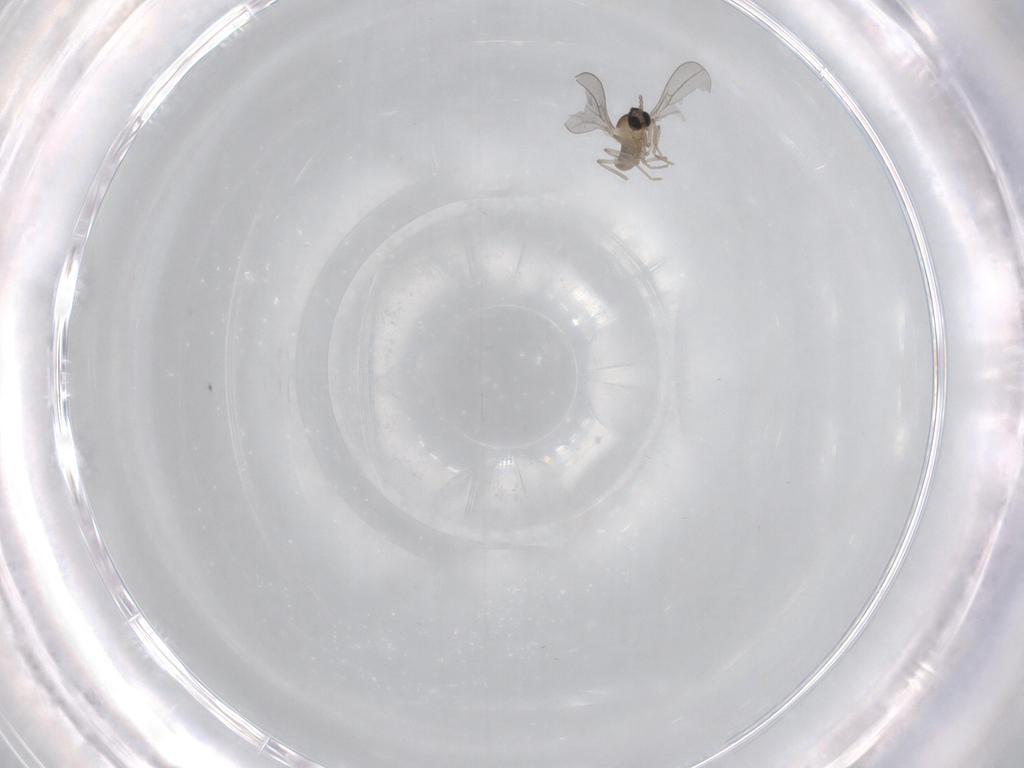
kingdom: Animalia
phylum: Arthropoda
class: Insecta
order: Diptera
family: Cecidomyiidae
